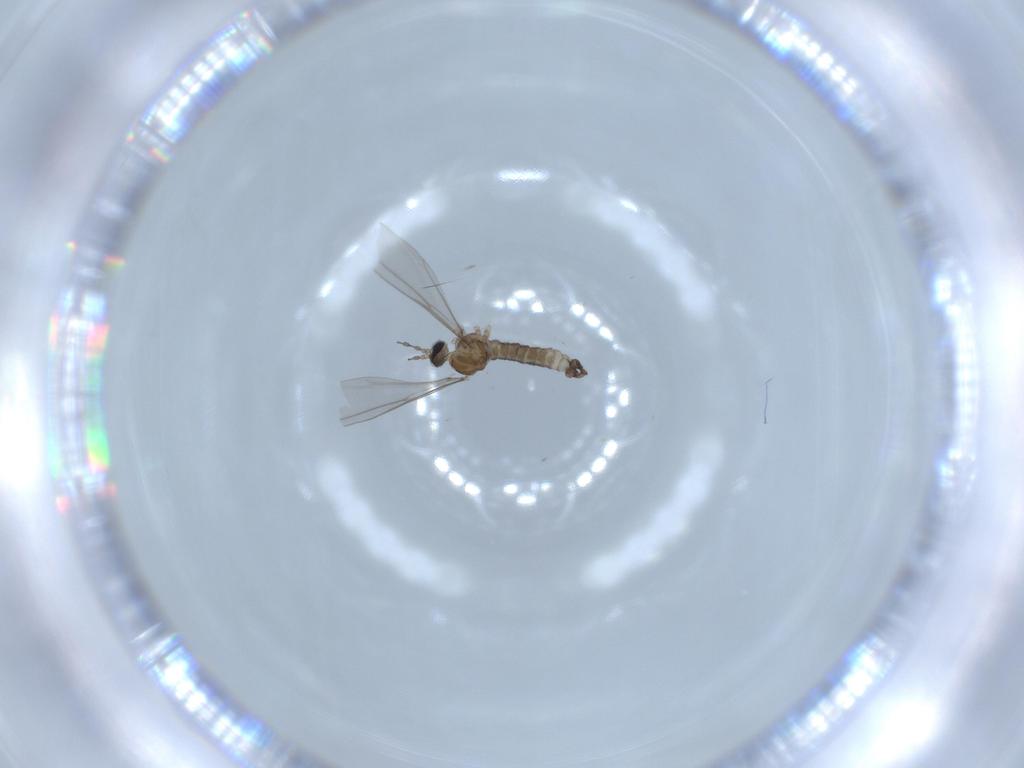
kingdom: Animalia
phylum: Arthropoda
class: Insecta
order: Diptera
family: Cecidomyiidae
